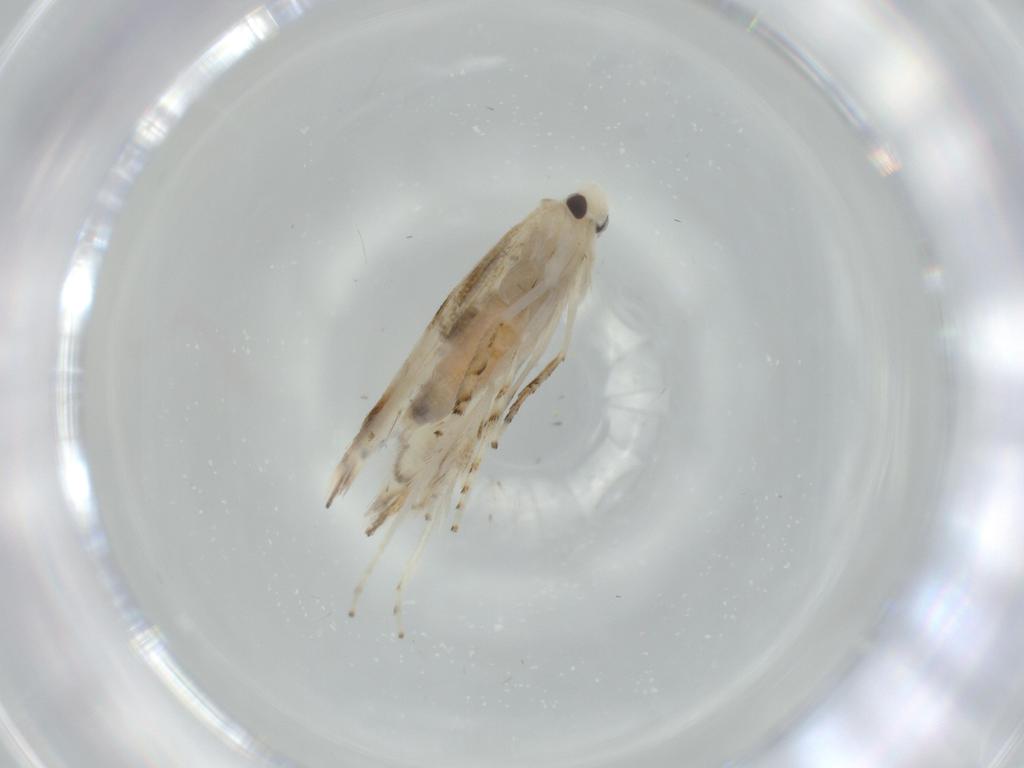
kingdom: Animalia
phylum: Arthropoda
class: Insecta
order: Lepidoptera
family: Gracillariidae
